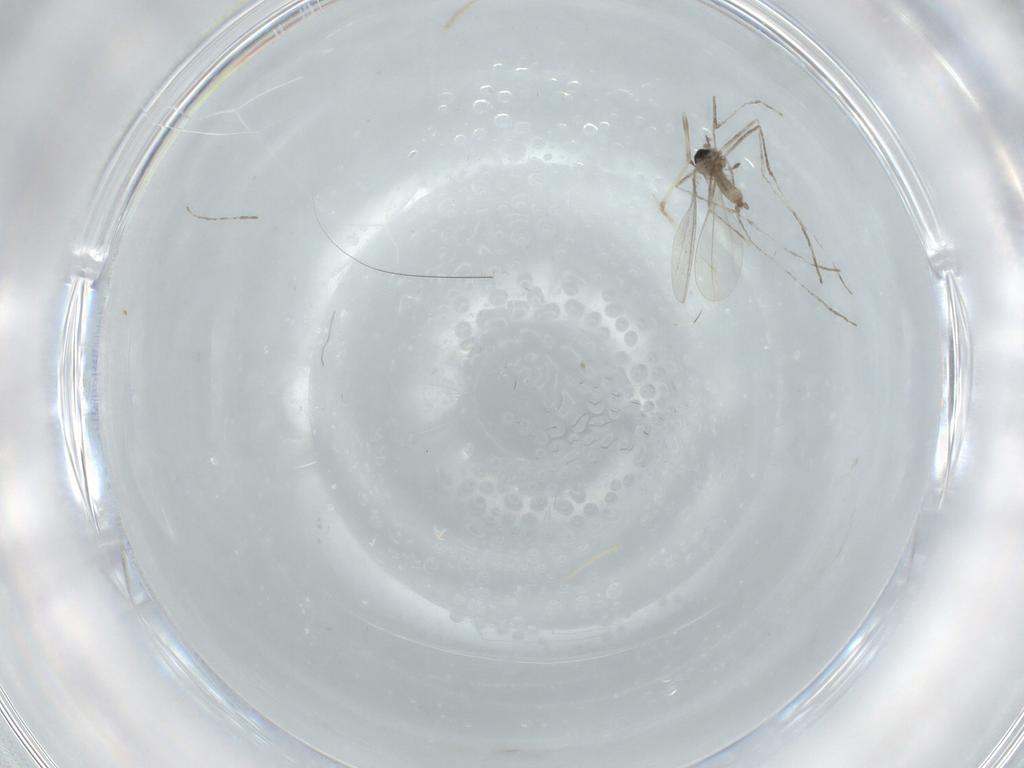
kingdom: Animalia
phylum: Arthropoda
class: Insecta
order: Diptera
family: Cecidomyiidae
